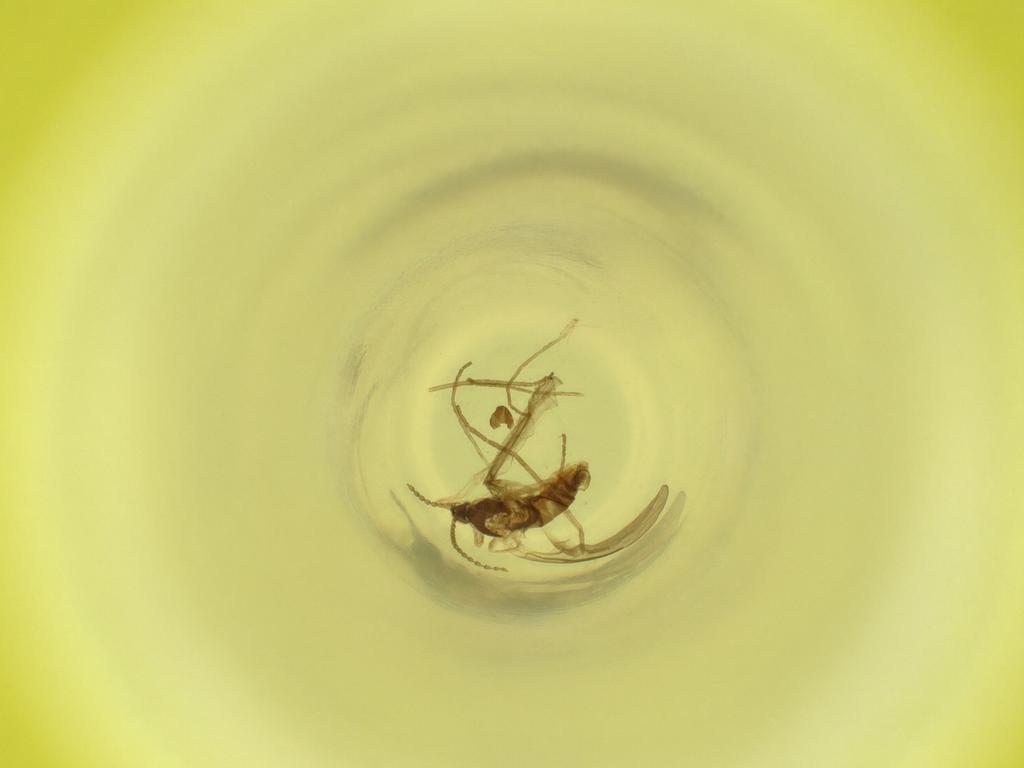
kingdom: Animalia
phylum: Arthropoda
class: Insecta
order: Diptera
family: Cecidomyiidae
